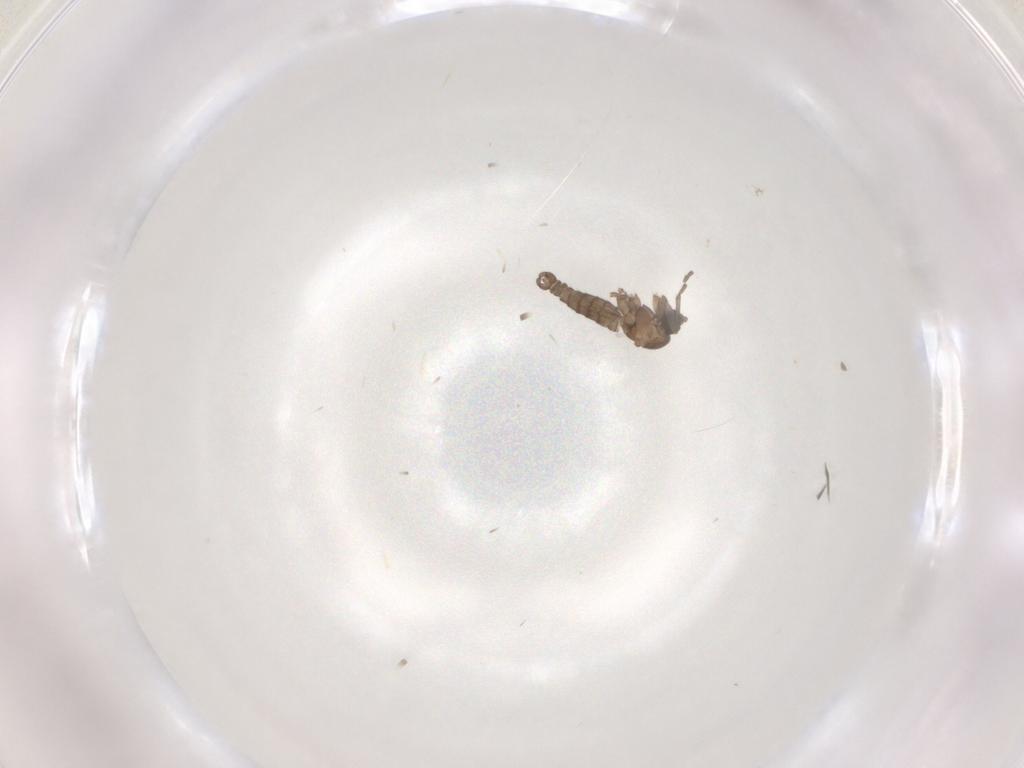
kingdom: Animalia
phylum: Arthropoda
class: Insecta
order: Diptera
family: Sciaridae
